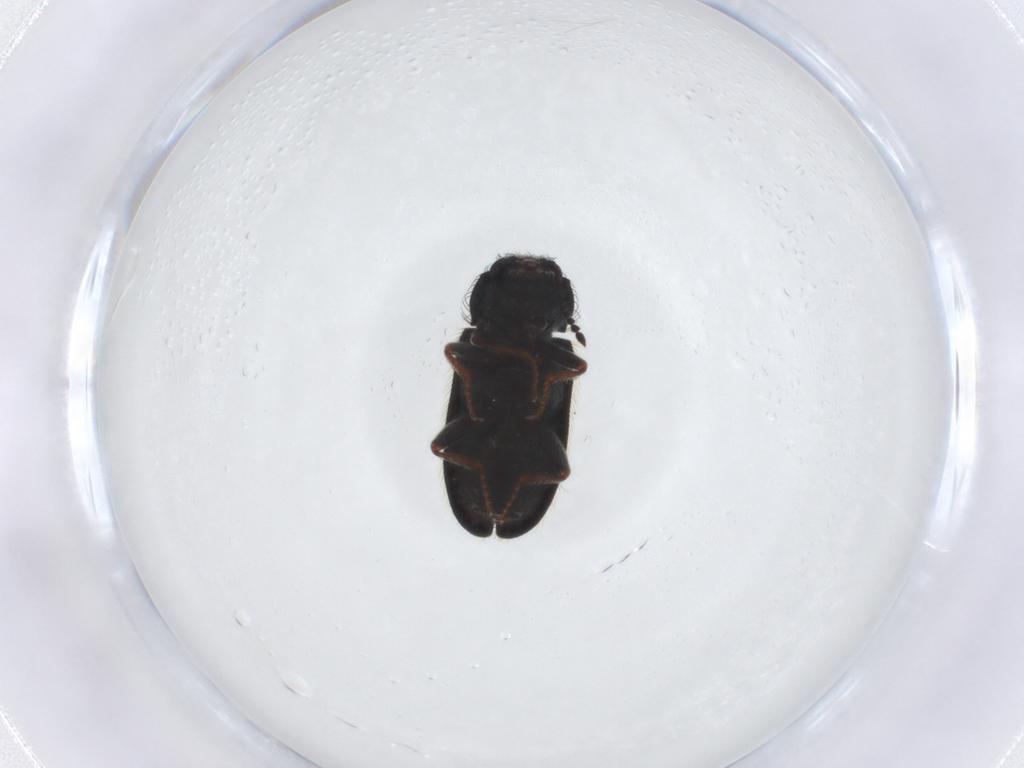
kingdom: Animalia
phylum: Arthropoda
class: Insecta
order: Coleoptera
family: Melyridae
